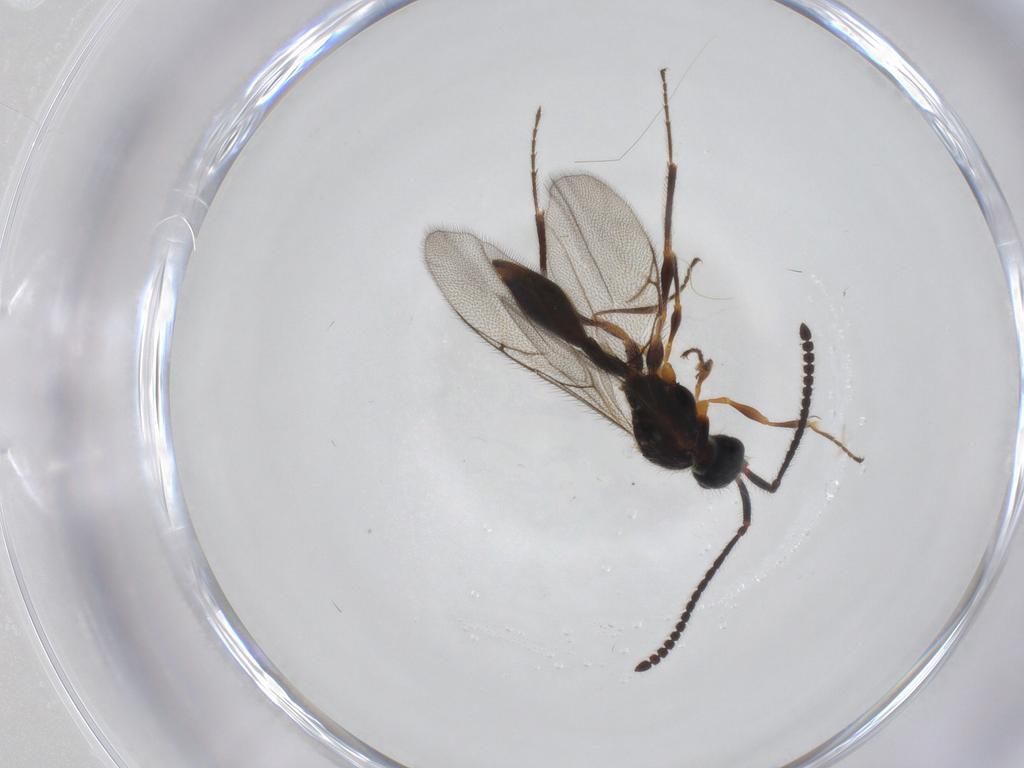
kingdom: Animalia
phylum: Arthropoda
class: Insecta
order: Hymenoptera
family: Diapriidae
